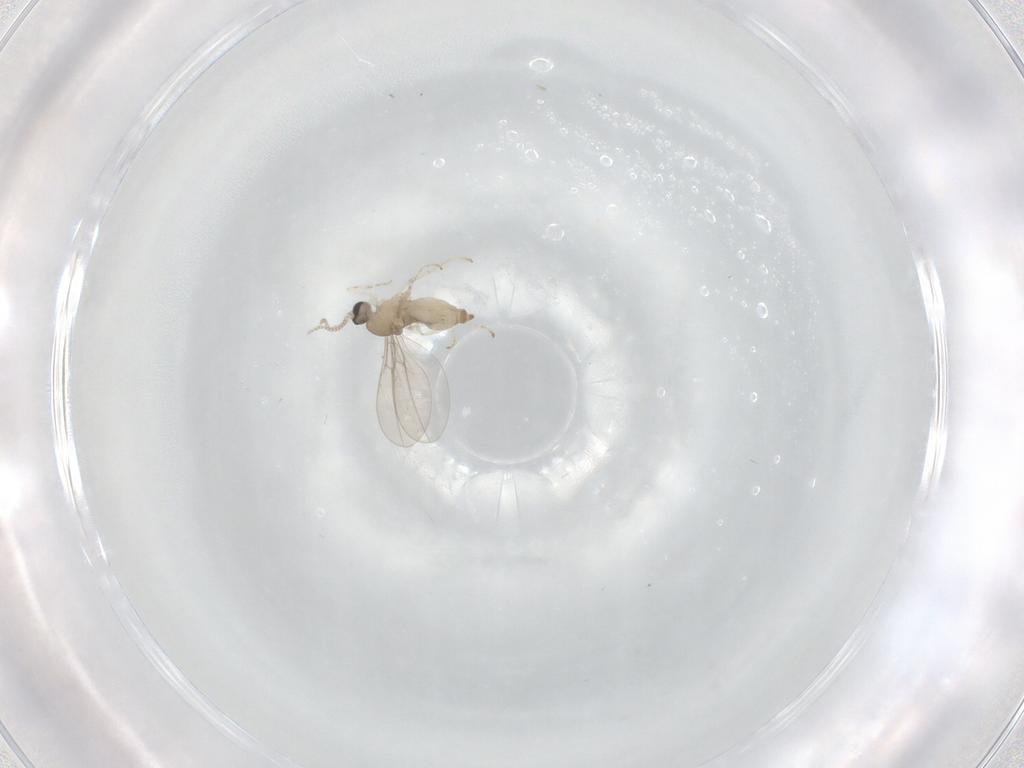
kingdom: Animalia
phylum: Arthropoda
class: Insecta
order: Diptera
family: Cecidomyiidae
